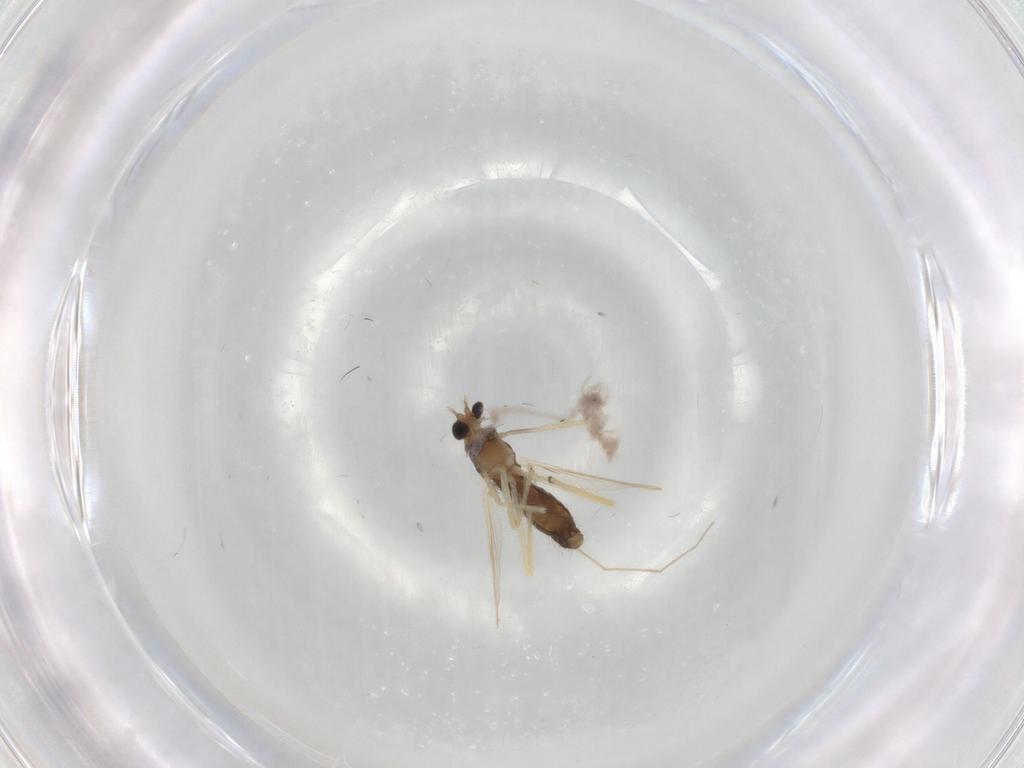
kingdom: Animalia
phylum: Arthropoda
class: Insecta
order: Diptera
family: Chironomidae
